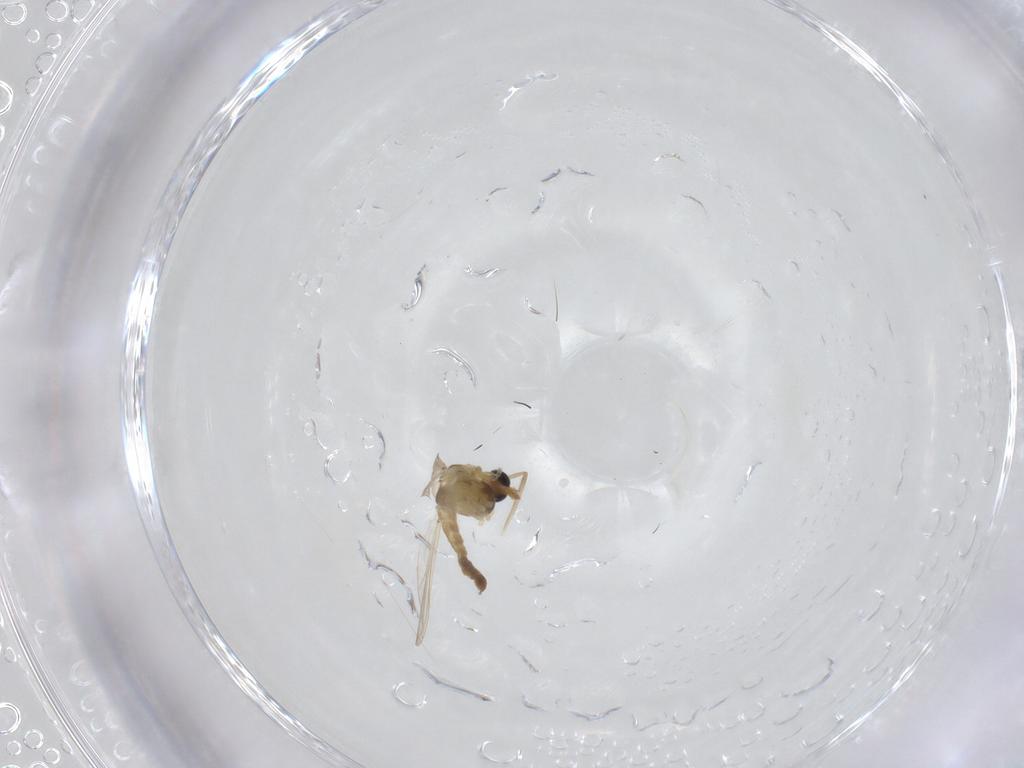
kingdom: Animalia
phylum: Arthropoda
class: Insecta
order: Diptera
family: Chironomidae
